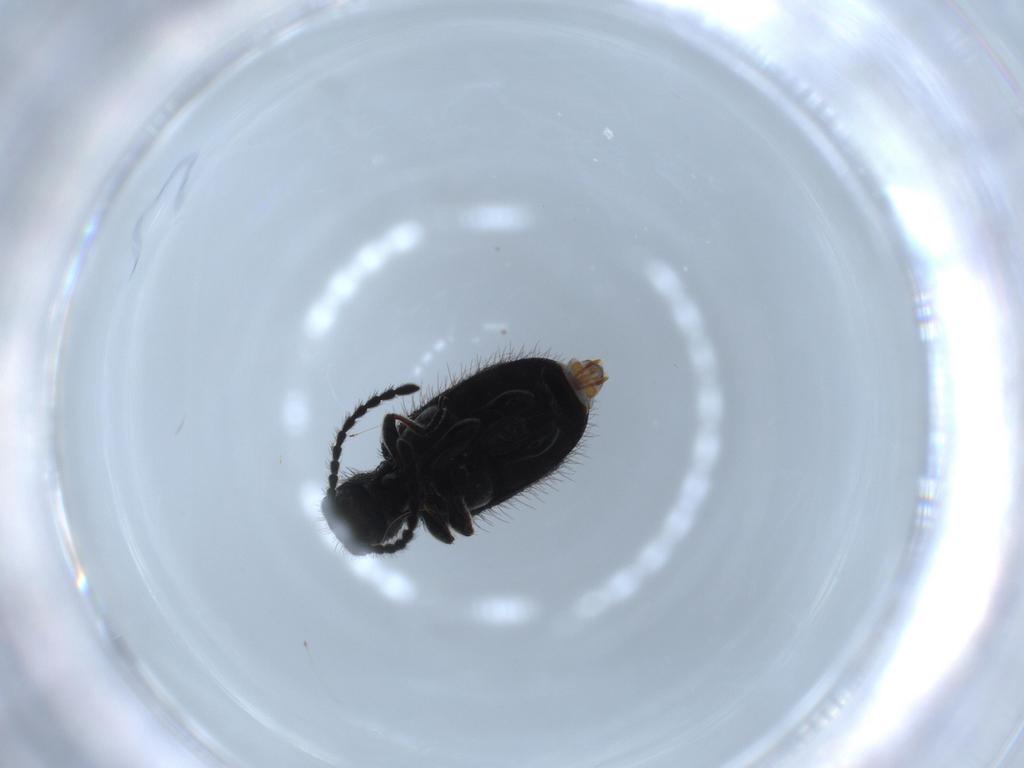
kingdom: Animalia
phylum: Arthropoda
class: Insecta
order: Coleoptera
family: Ptinidae
